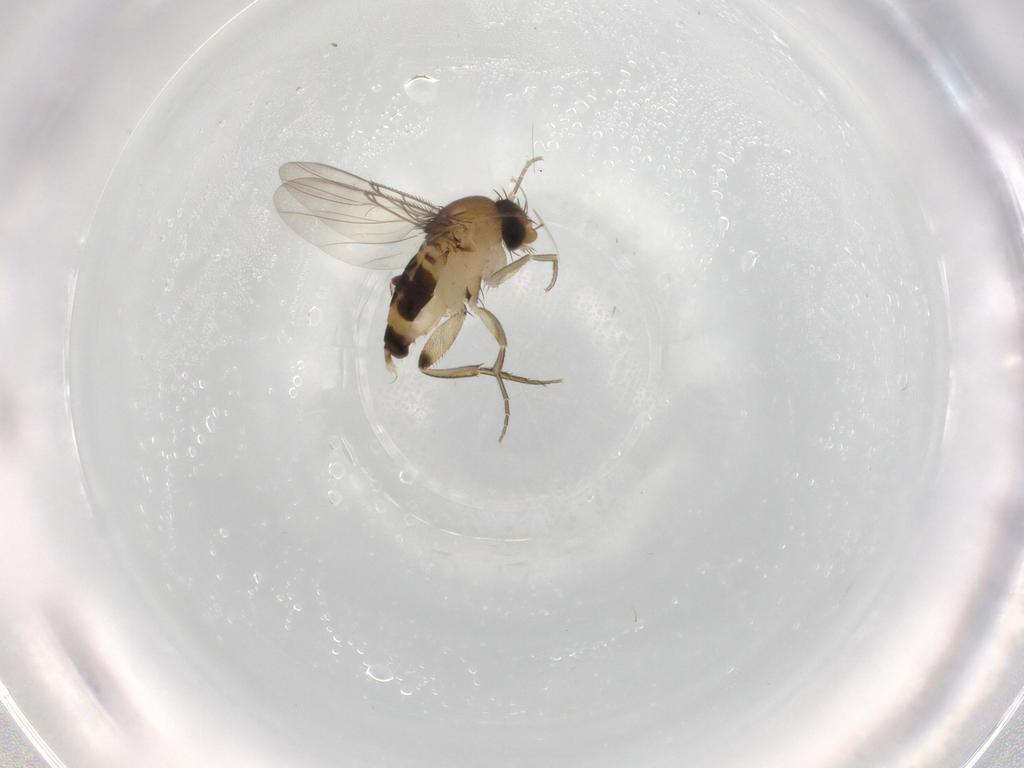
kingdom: Animalia
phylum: Arthropoda
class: Insecta
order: Diptera
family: Phoridae
